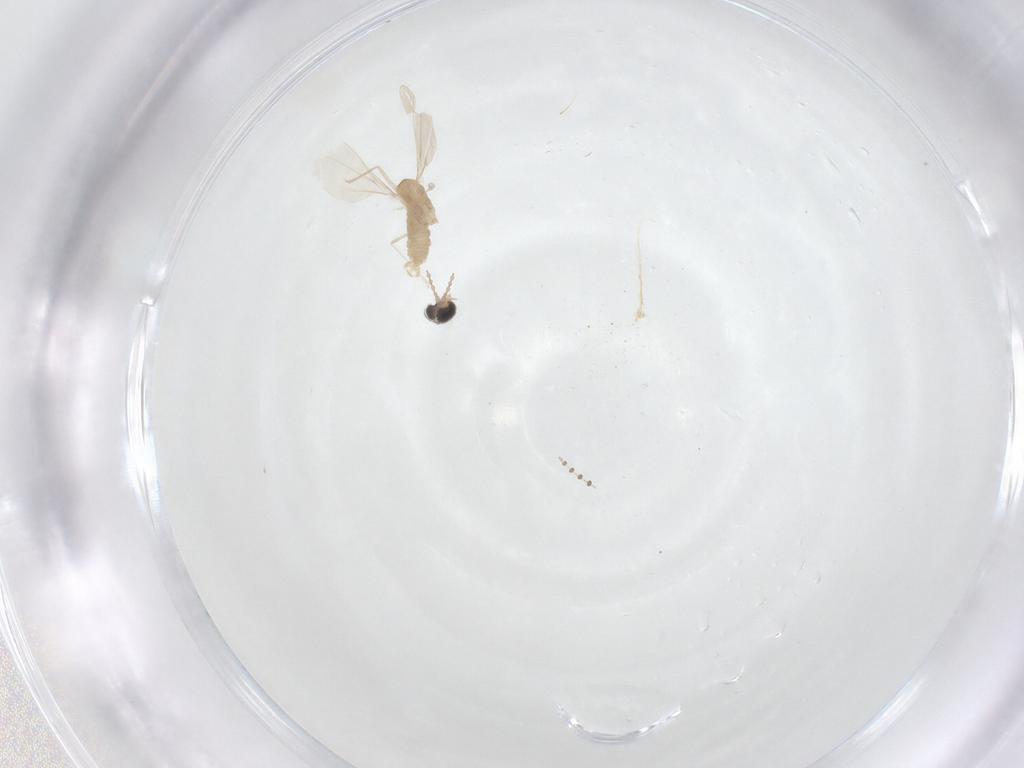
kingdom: Animalia
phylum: Arthropoda
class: Insecta
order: Diptera
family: Cecidomyiidae
